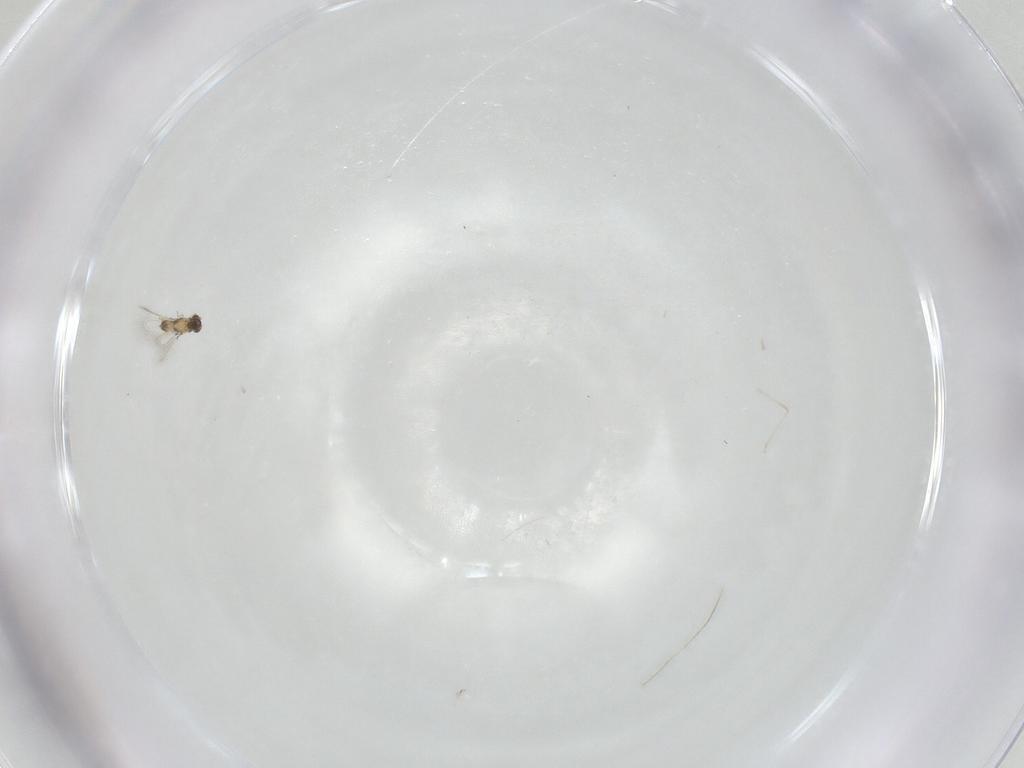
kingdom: Animalia
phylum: Arthropoda
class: Insecta
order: Hymenoptera
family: Mymaridae
